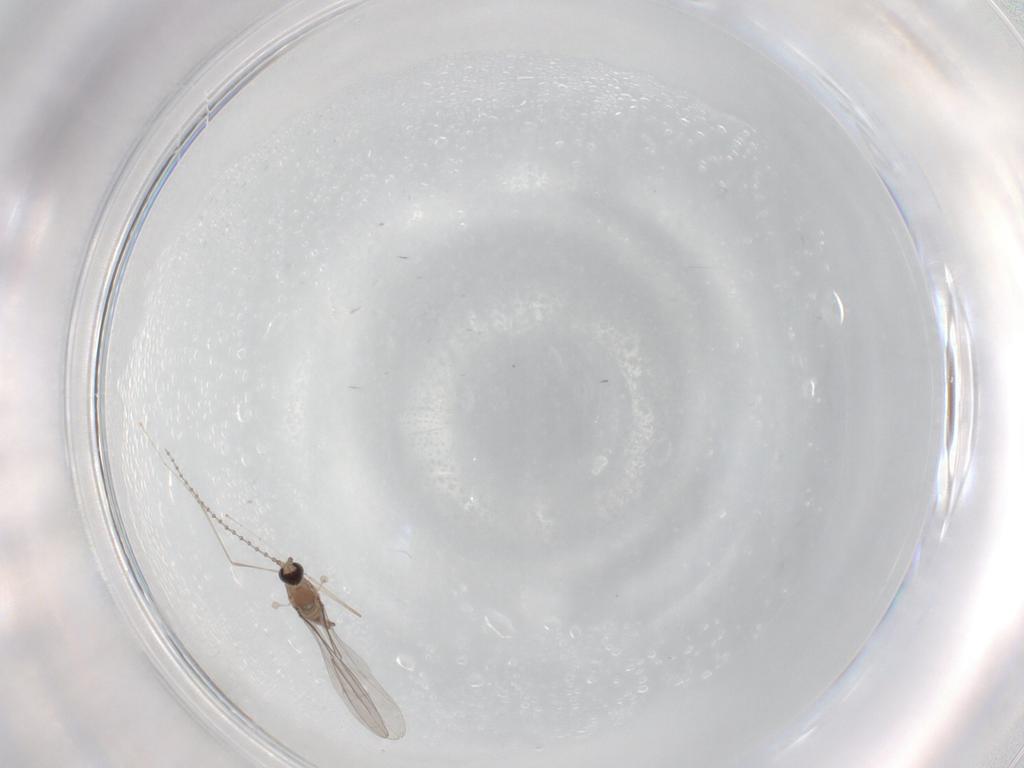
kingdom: Animalia
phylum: Arthropoda
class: Insecta
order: Diptera
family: Cecidomyiidae
